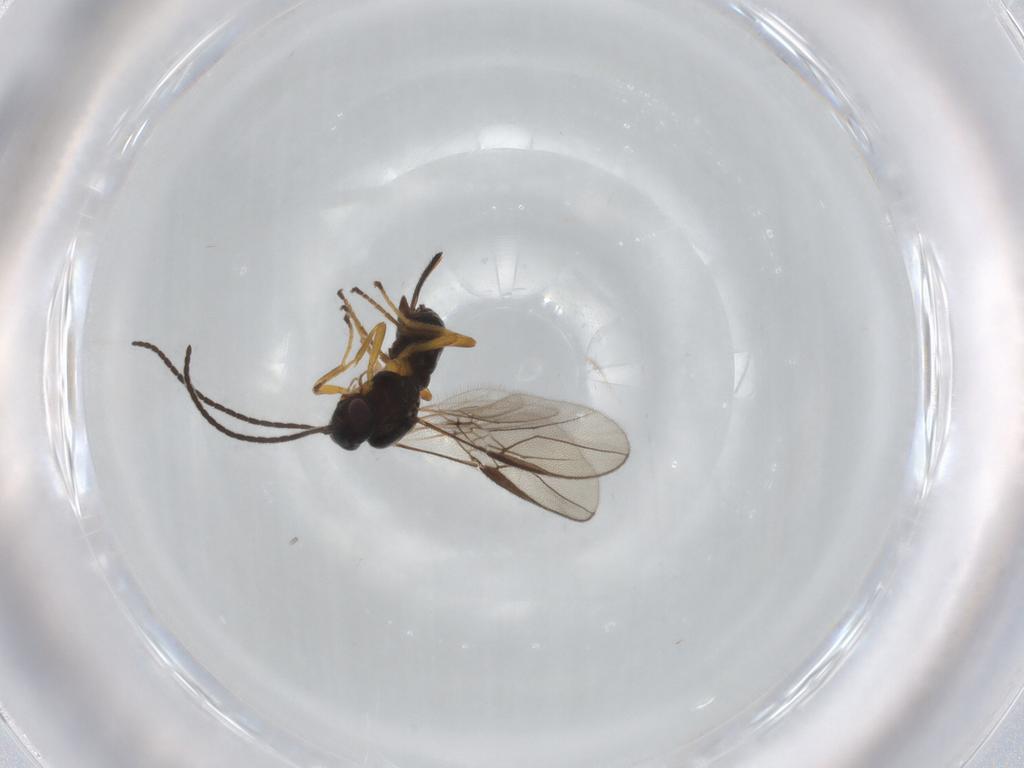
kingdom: Animalia
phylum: Arthropoda
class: Insecta
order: Hymenoptera
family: Braconidae
